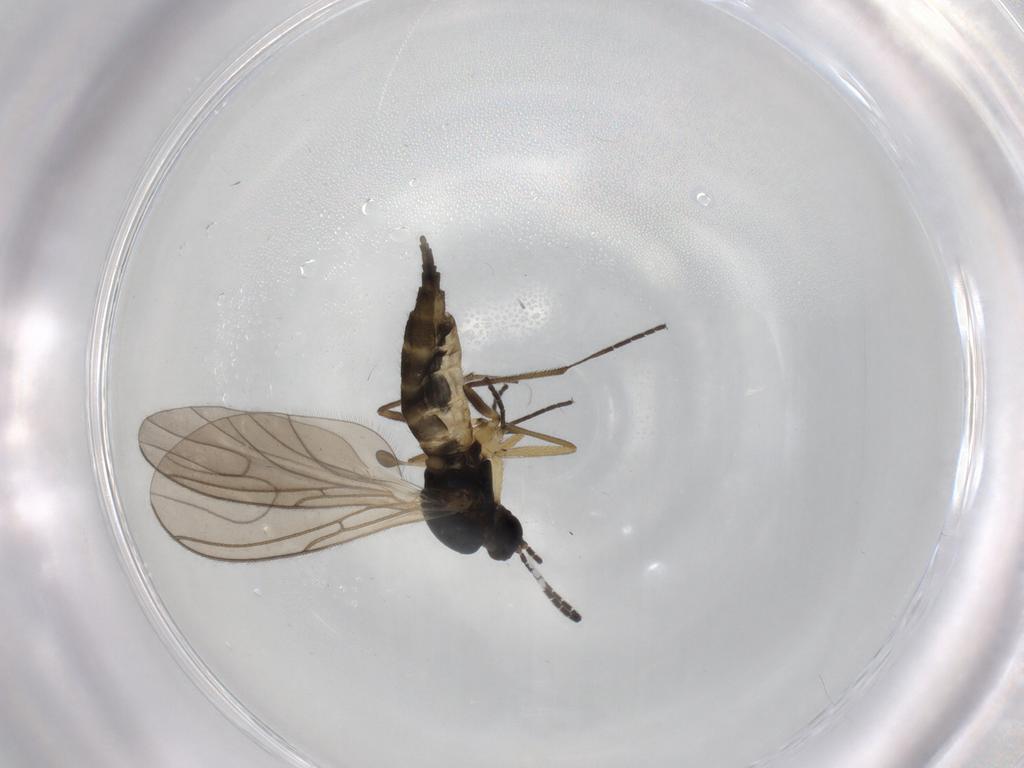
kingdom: Animalia
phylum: Arthropoda
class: Insecta
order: Diptera
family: Sciaridae
